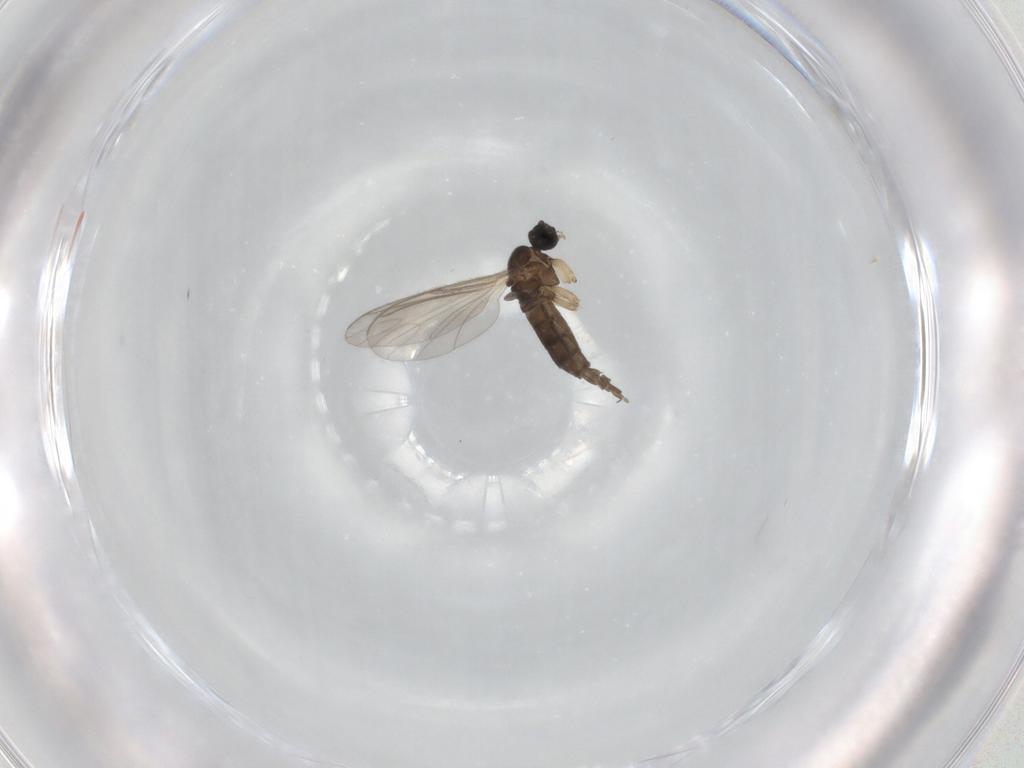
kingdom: Animalia
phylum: Arthropoda
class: Insecta
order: Diptera
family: Sciaridae
